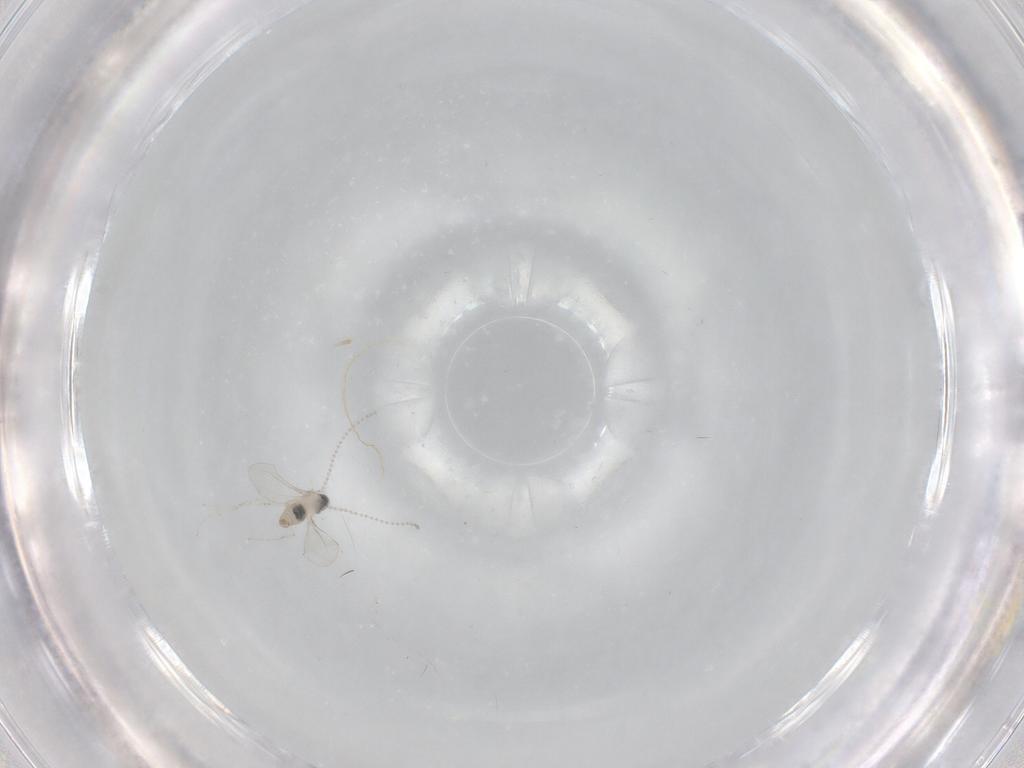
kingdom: Animalia
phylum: Arthropoda
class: Insecta
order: Diptera
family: Cecidomyiidae
